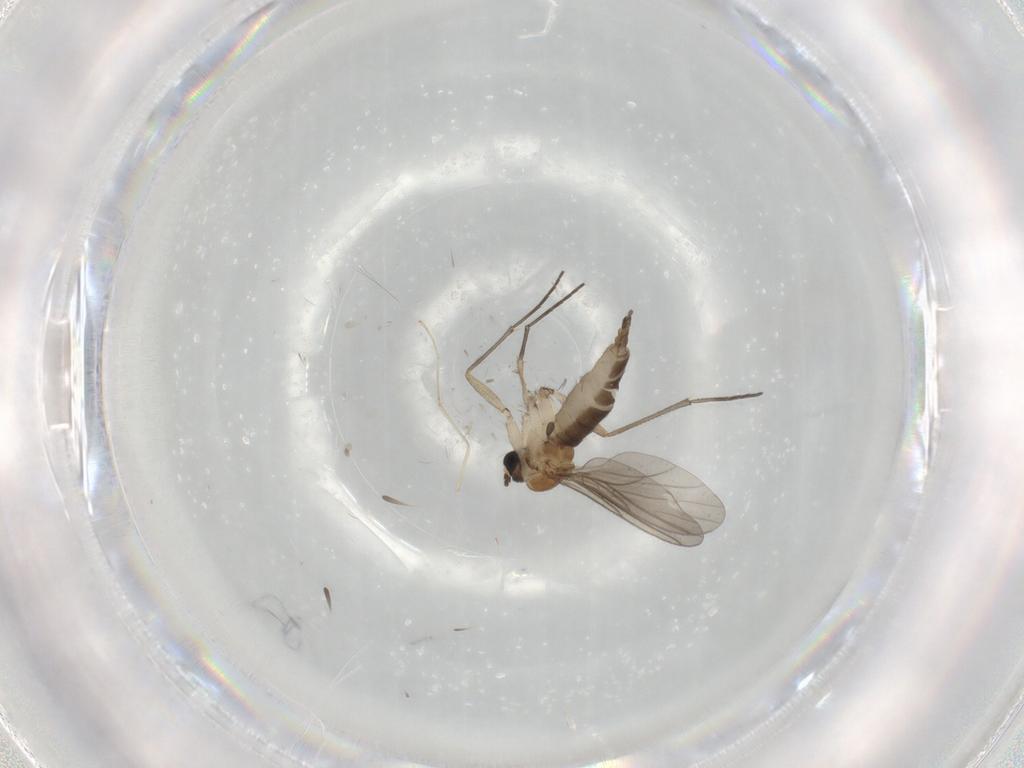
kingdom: Animalia
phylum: Arthropoda
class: Insecta
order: Diptera
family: Sciaridae
